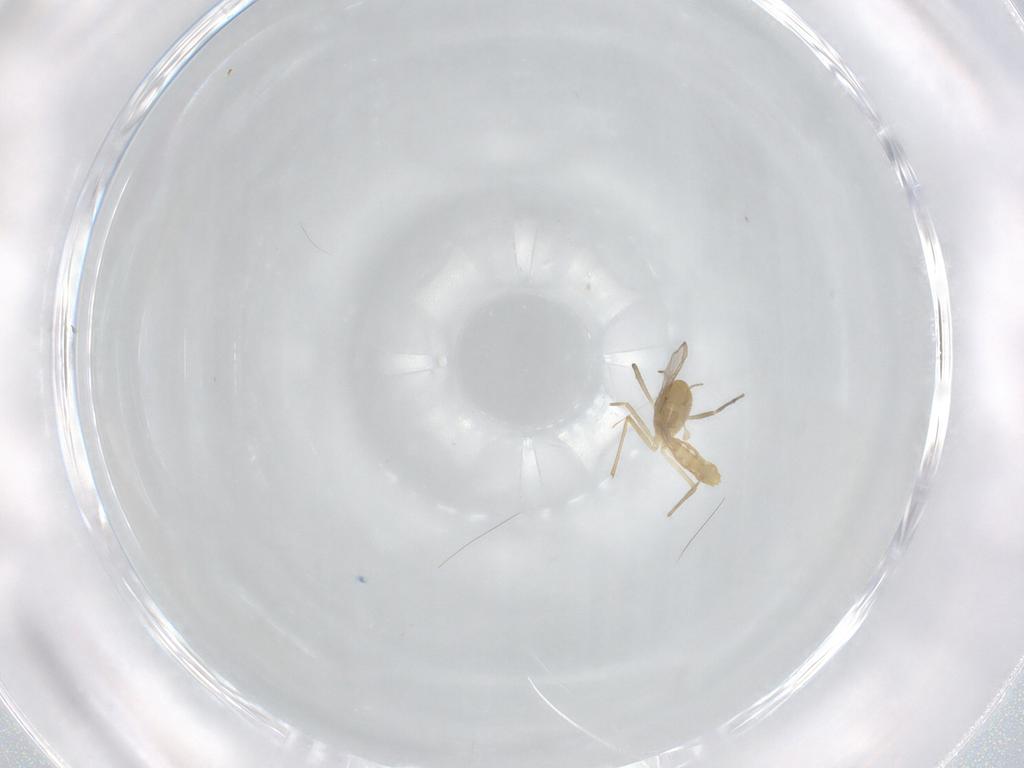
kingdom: Animalia
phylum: Arthropoda
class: Insecta
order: Diptera
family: Chironomidae
